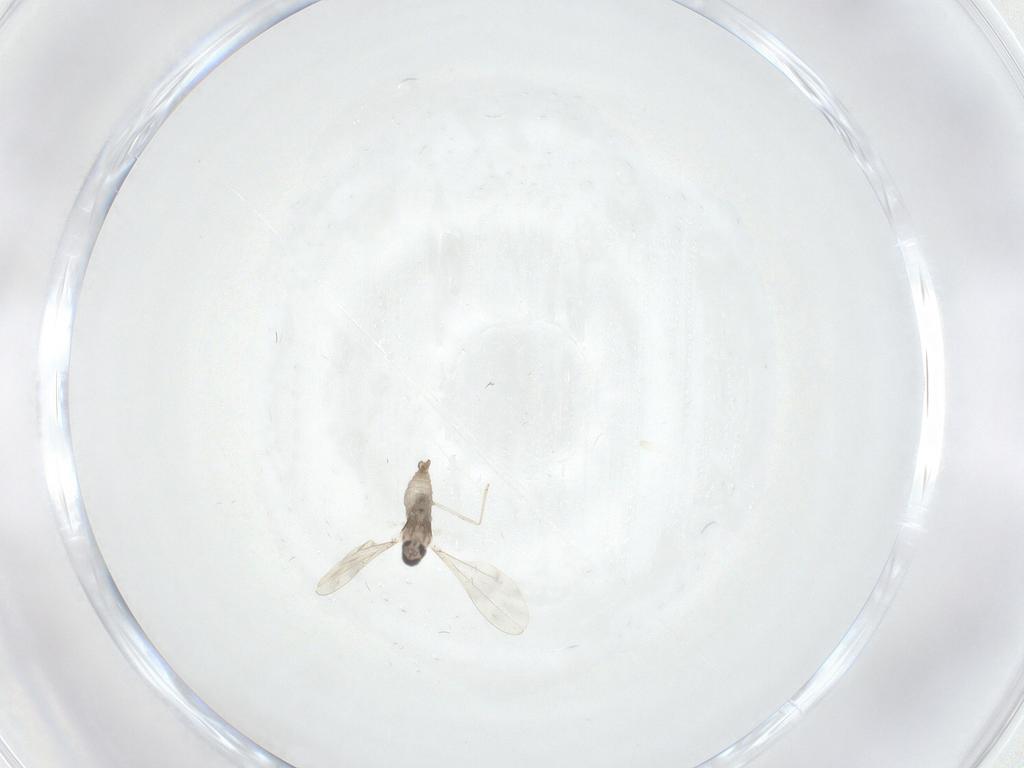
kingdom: Animalia
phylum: Arthropoda
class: Insecta
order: Diptera
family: Cecidomyiidae
